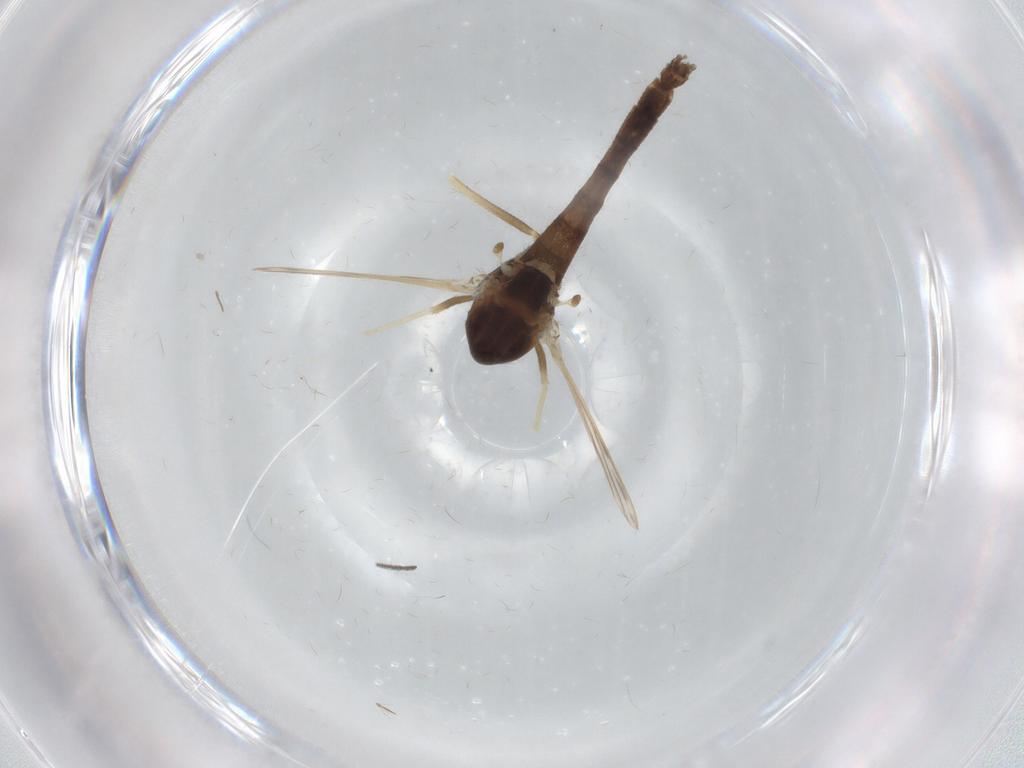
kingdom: Animalia
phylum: Arthropoda
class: Insecta
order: Diptera
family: Chironomidae
